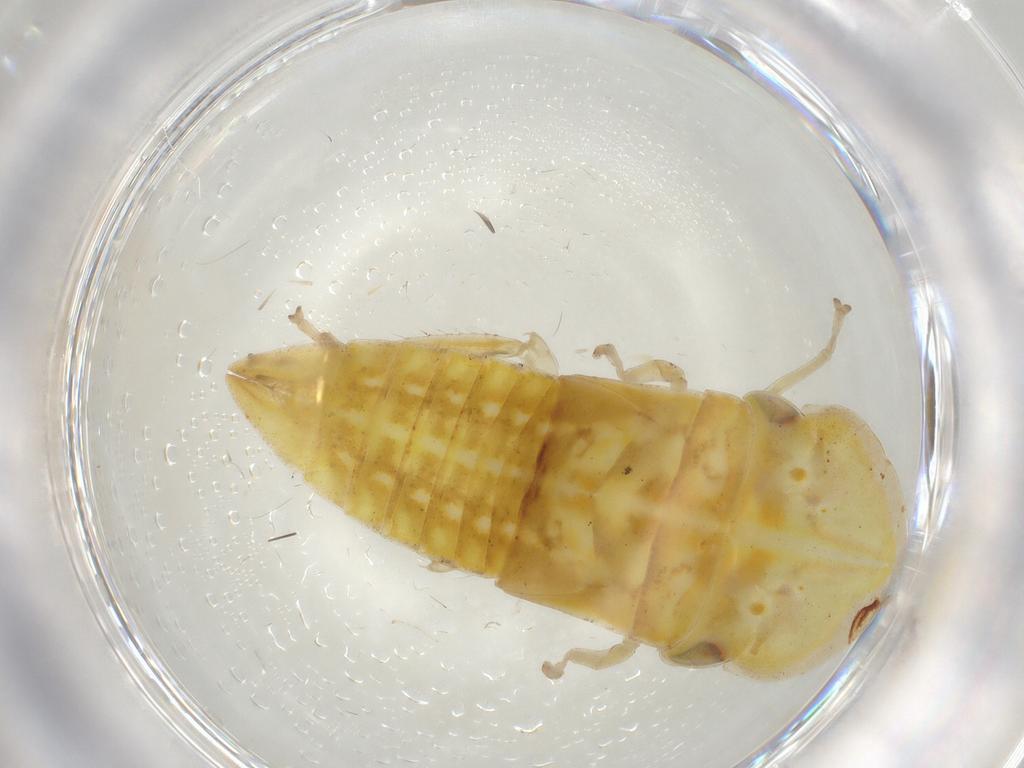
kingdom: Animalia
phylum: Arthropoda
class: Insecta
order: Hemiptera
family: Cicadellidae
